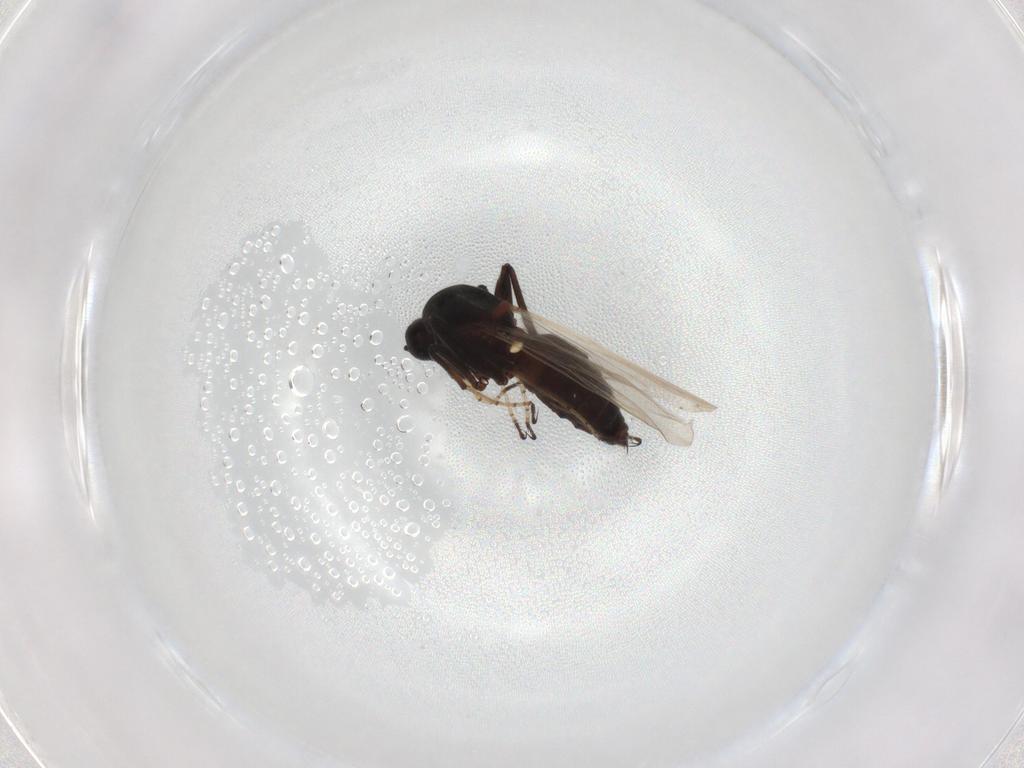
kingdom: Animalia
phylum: Arthropoda
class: Insecta
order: Diptera
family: Ceratopogonidae
